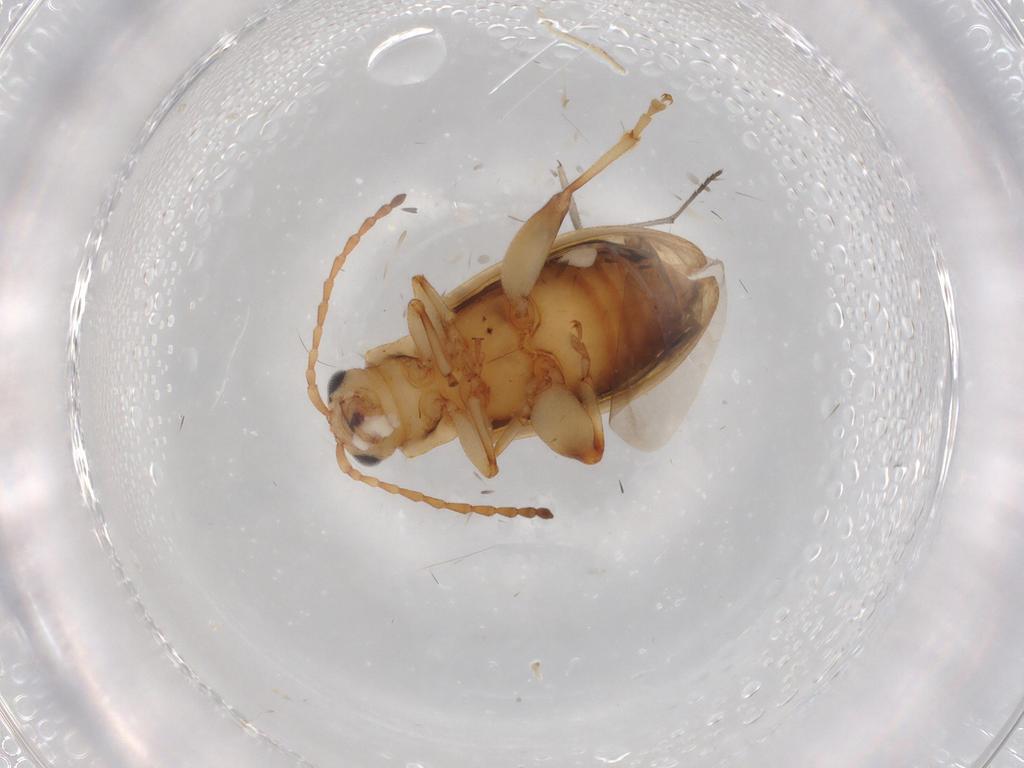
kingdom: Animalia
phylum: Arthropoda
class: Insecta
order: Coleoptera
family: Chrysomelidae
